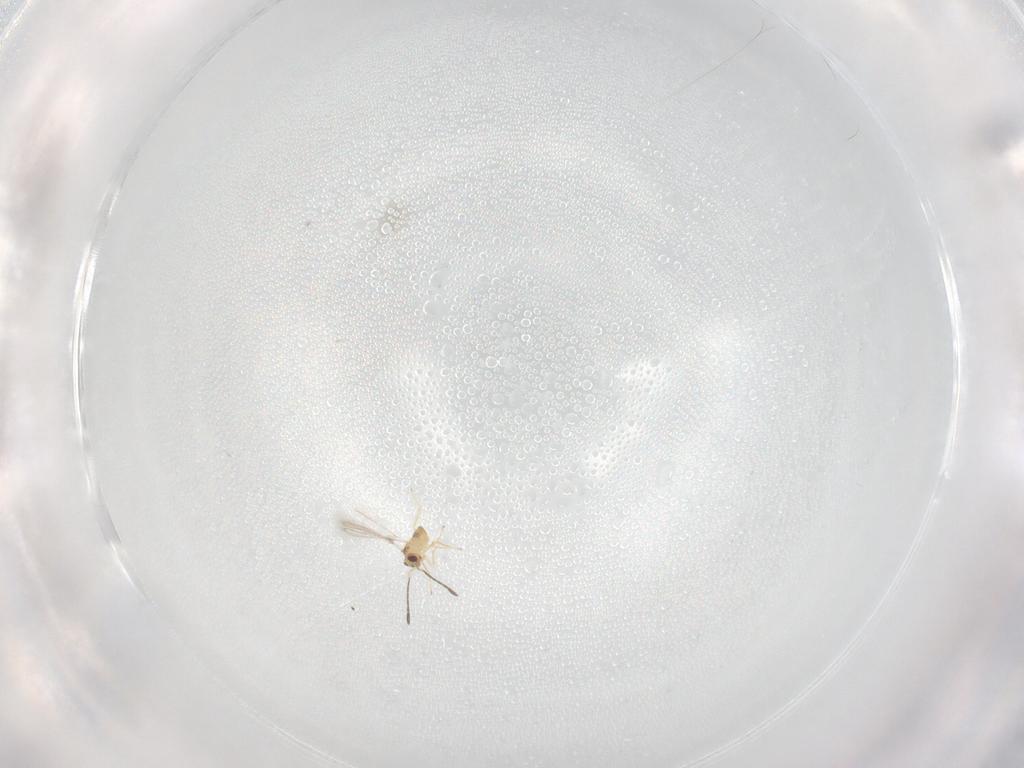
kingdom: Animalia
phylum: Arthropoda
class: Insecta
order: Hymenoptera
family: Mymaridae
